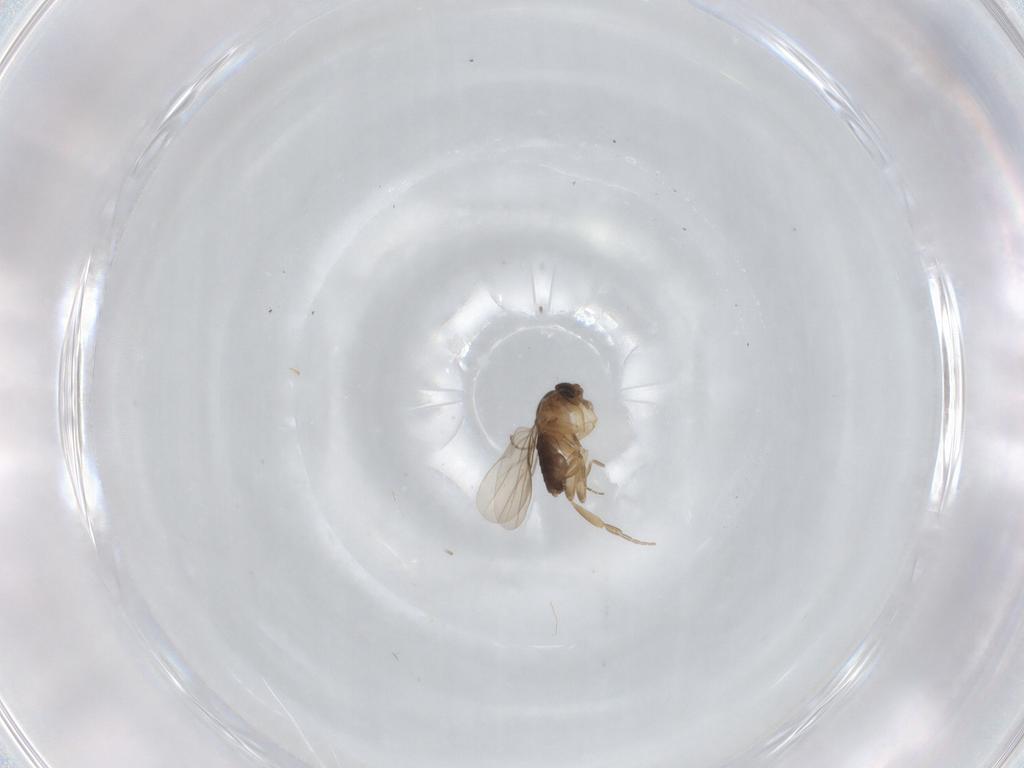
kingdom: Animalia
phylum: Arthropoda
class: Insecta
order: Diptera
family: Phoridae
